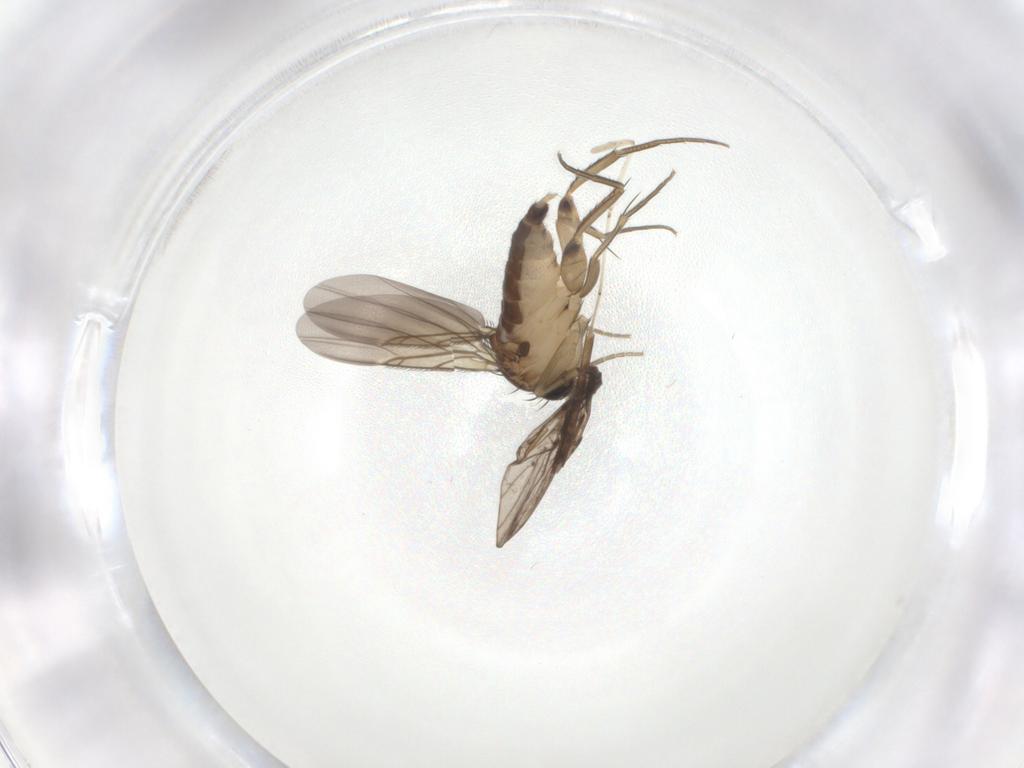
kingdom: Animalia
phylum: Arthropoda
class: Insecta
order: Diptera
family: Phoridae
